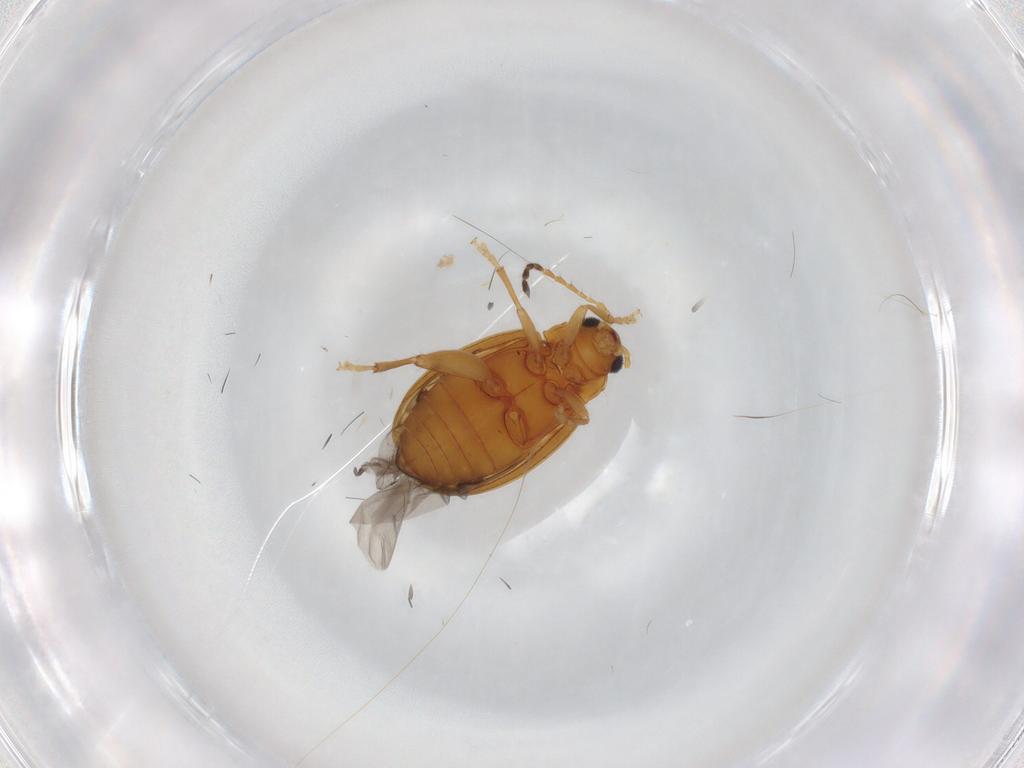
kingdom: Animalia
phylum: Arthropoda
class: Insecta
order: Coleoptera
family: Chrysomelidae
